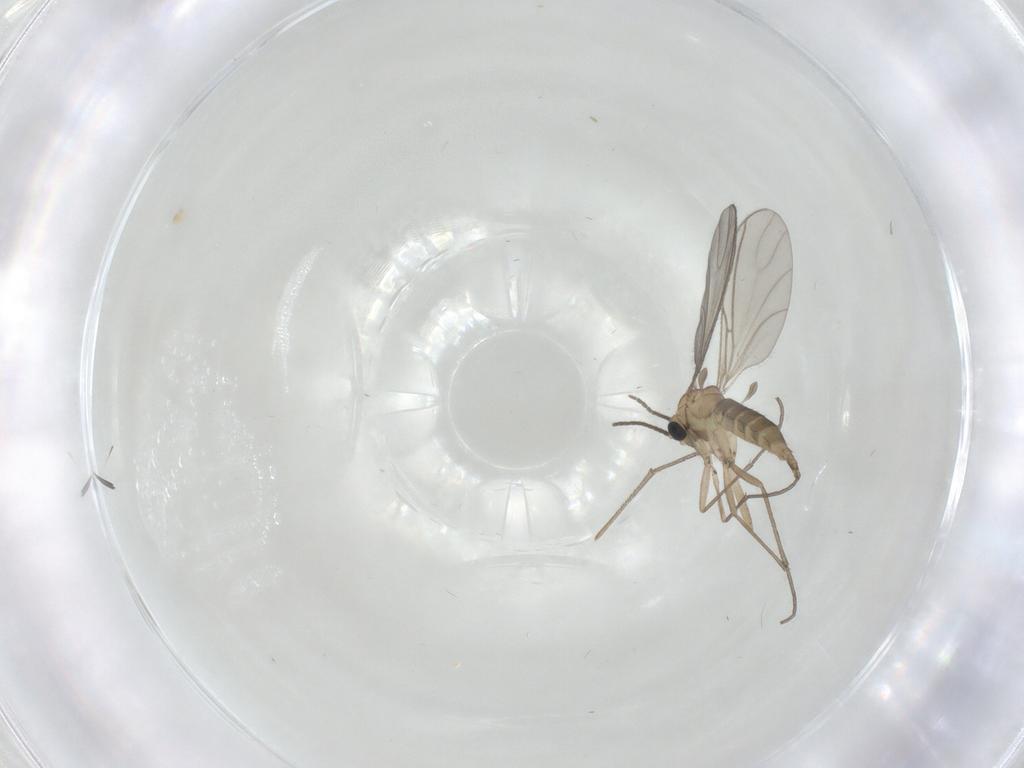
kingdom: Animalia
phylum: Arthropoda
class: Insecta
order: Diptera
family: Sciaridae
